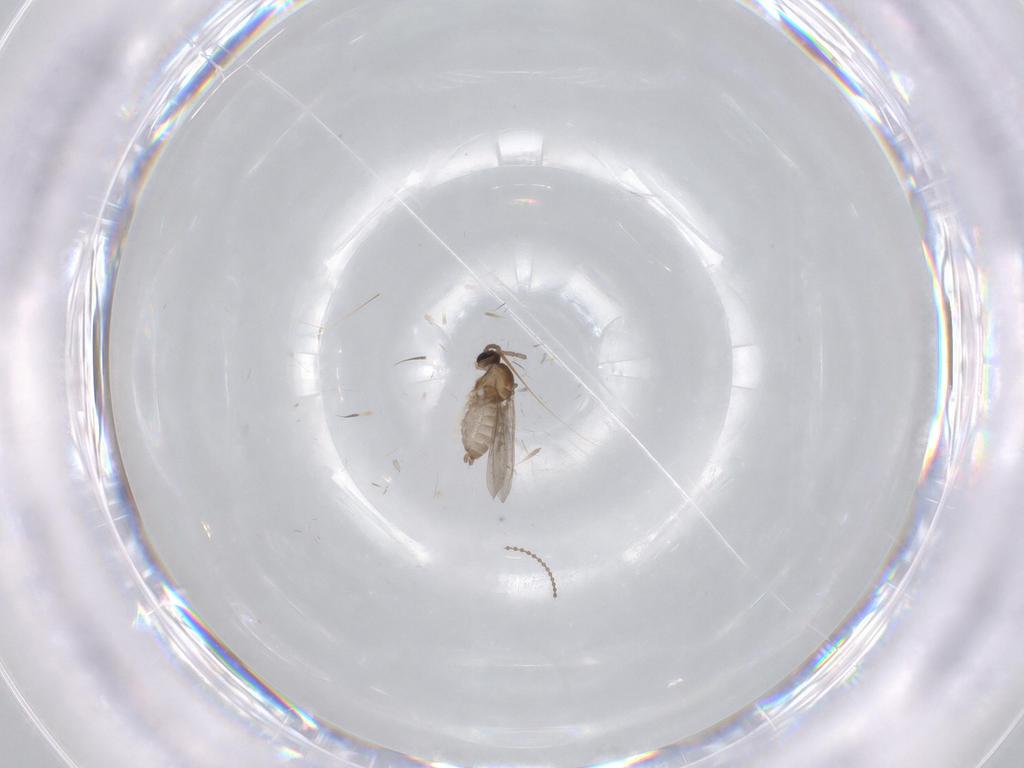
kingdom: Animalia
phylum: Arthropoda
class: Insecta
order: Diptera
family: Cecidomyiidae
